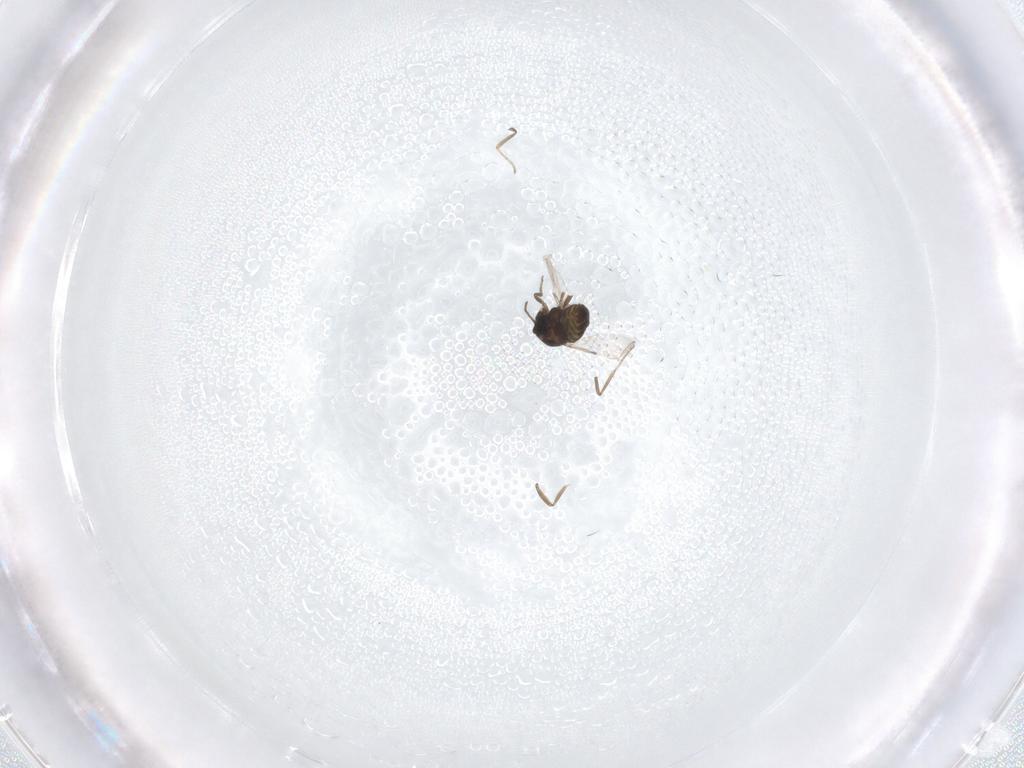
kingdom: Animalia
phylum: Arthropoda
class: Insecta
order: Diptera
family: Ceratopogonidae
